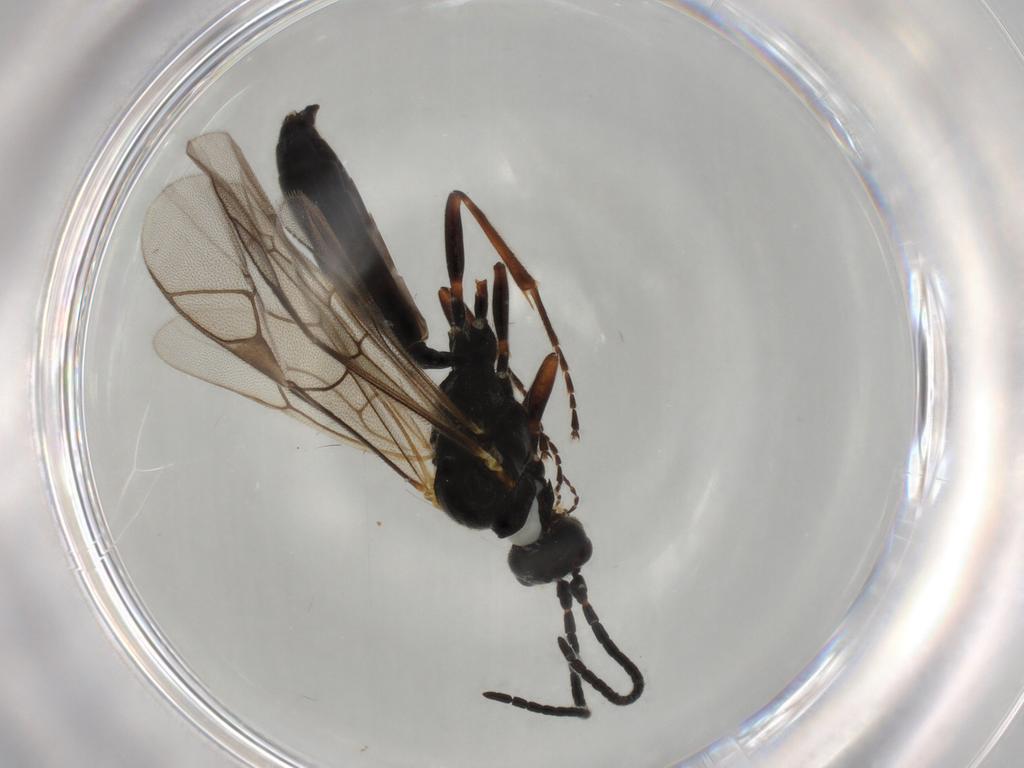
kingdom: Animalia
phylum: Arthropoda
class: Insecta
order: Hymenoptera
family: Ichneumonidae
